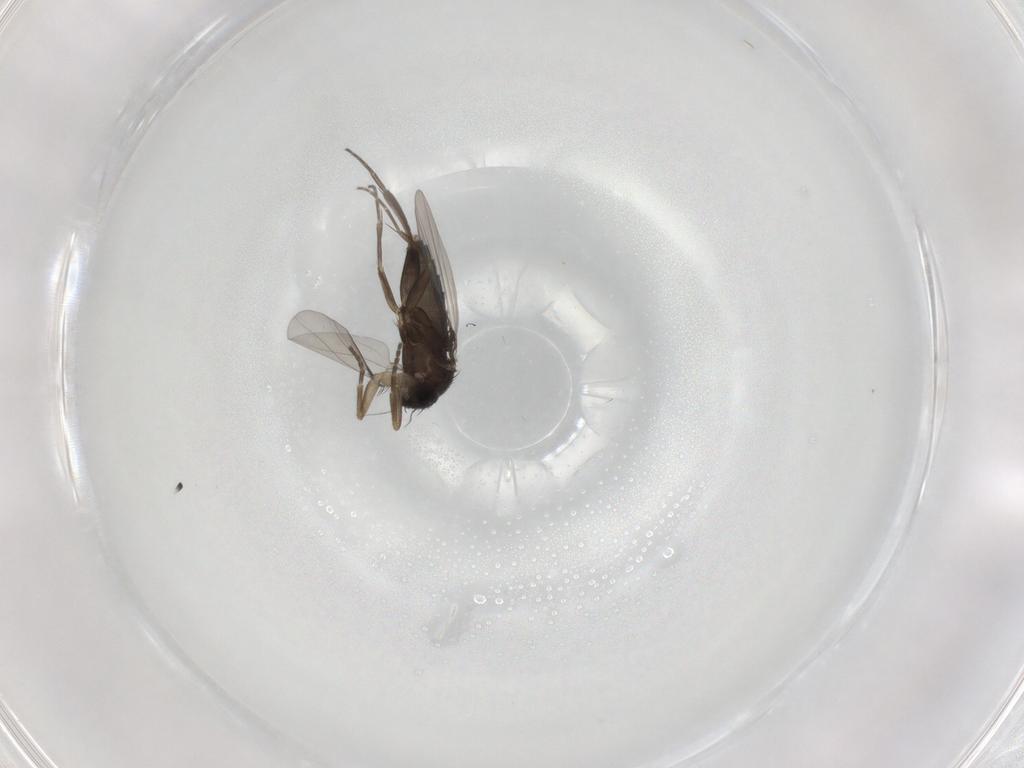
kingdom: Animalia
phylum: Arthropoda
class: Insecta
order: Diptera
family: Phoridae
